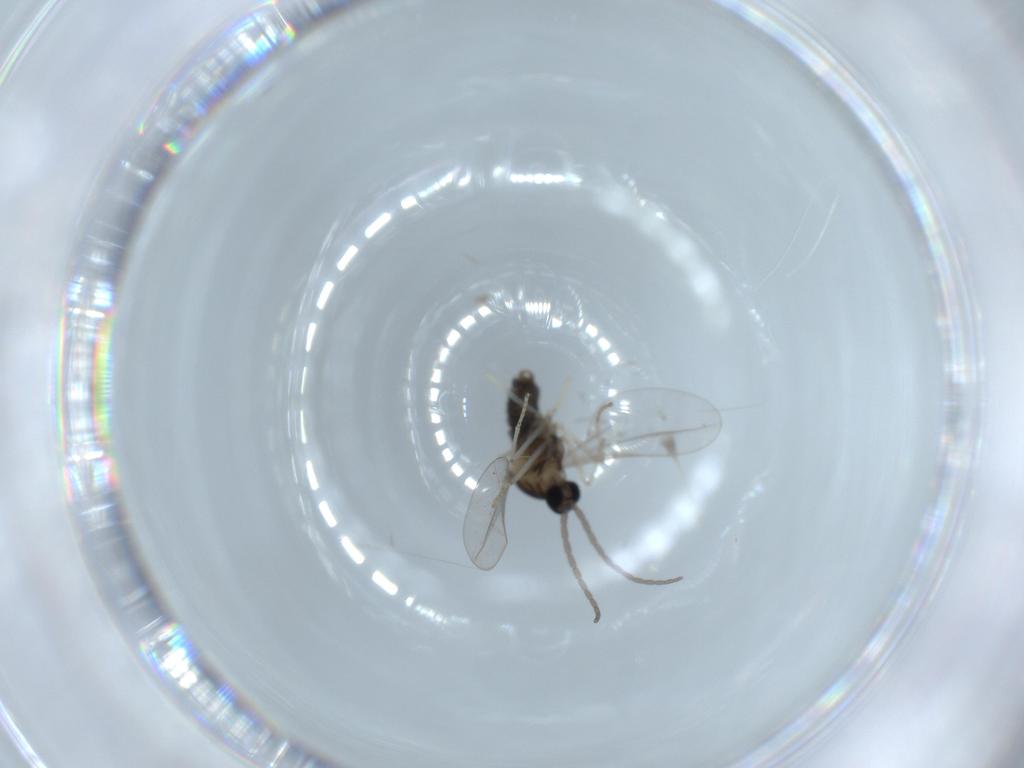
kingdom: Animalia
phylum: Arthropoda
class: Insecta
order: Diptera
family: Cecidomyiidae
